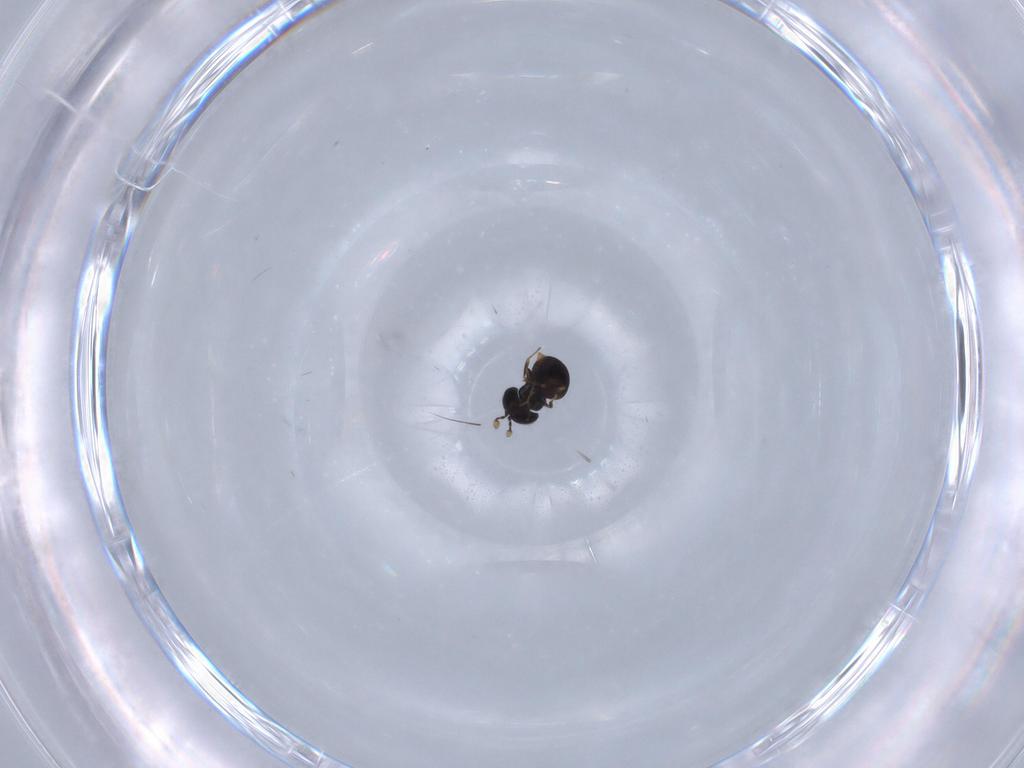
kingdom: Animalia
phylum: Arthropoda
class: Insecta
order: Hymenoptera
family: Scelionidae
